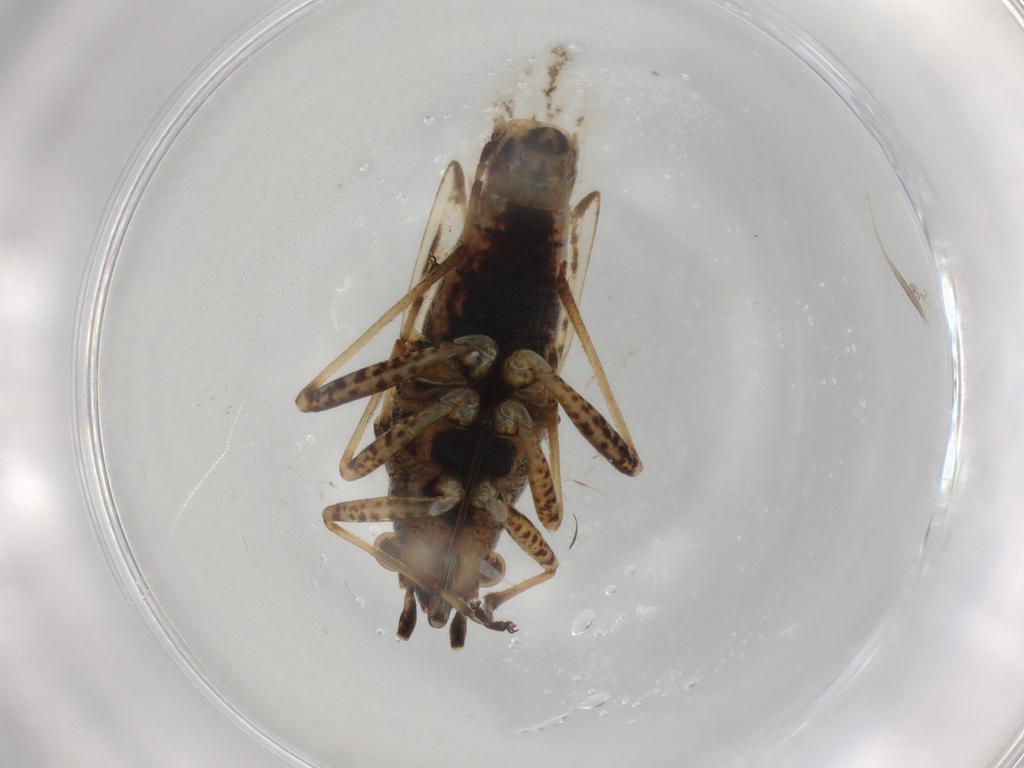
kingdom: Animalia
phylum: Arthropoda
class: Insecta
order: Hemiptera
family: Lygaeidae
